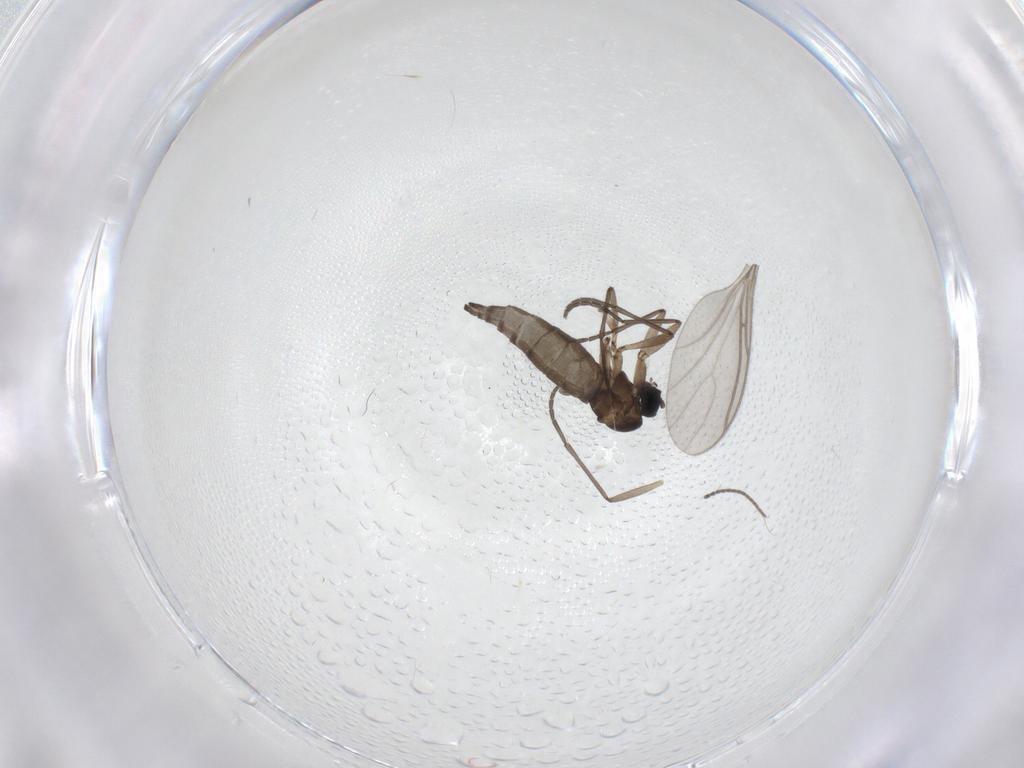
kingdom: Animalia
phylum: Arthropoda
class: Insecta
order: Diptera
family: Sciaridae
